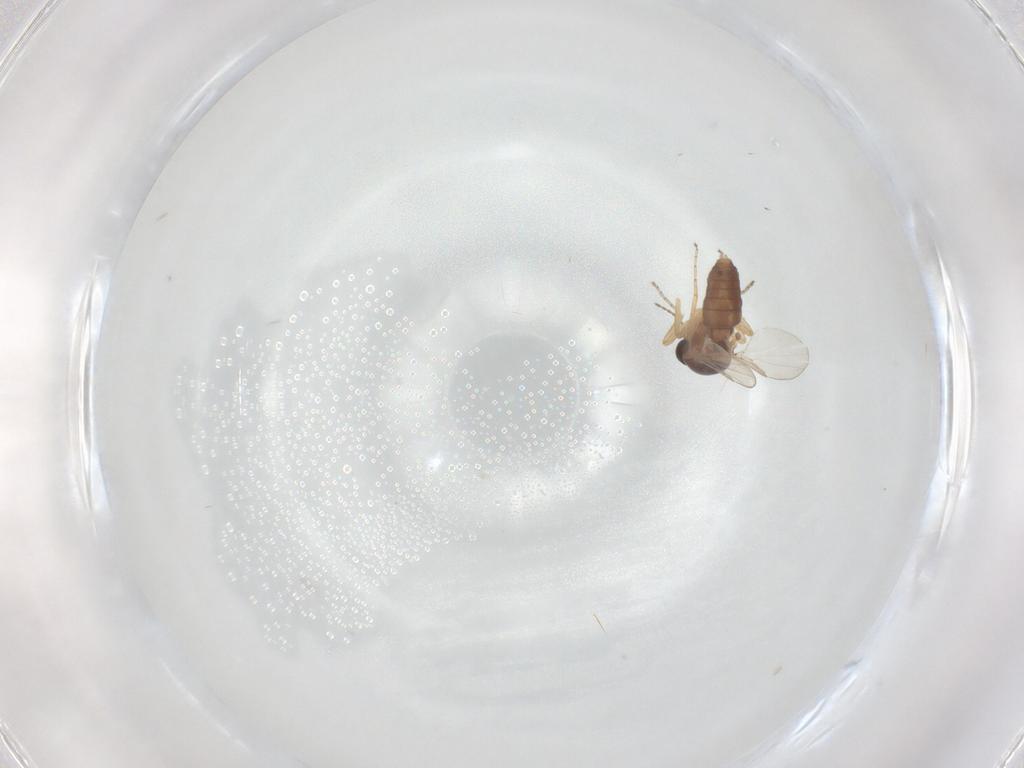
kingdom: Animalia
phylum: Arthropoda
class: Insecta
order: Diptera
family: Ceratopogonidae
